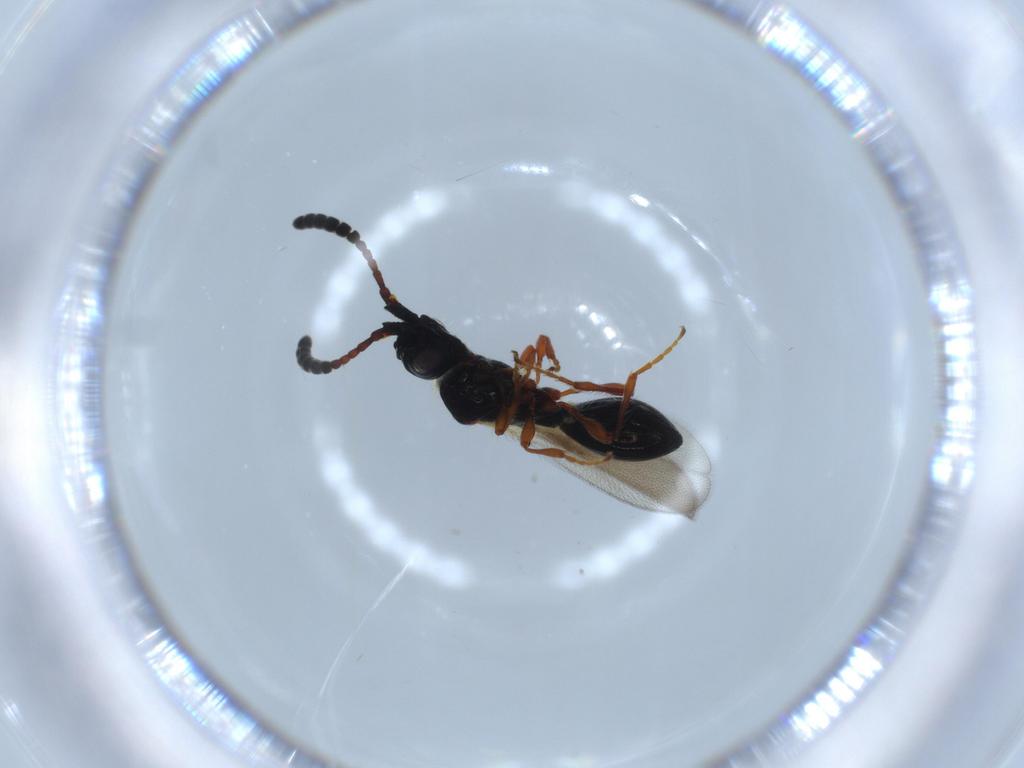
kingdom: Animalia
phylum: Arthropoda
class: Insecta
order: Hymenoptera
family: Diapriidae
